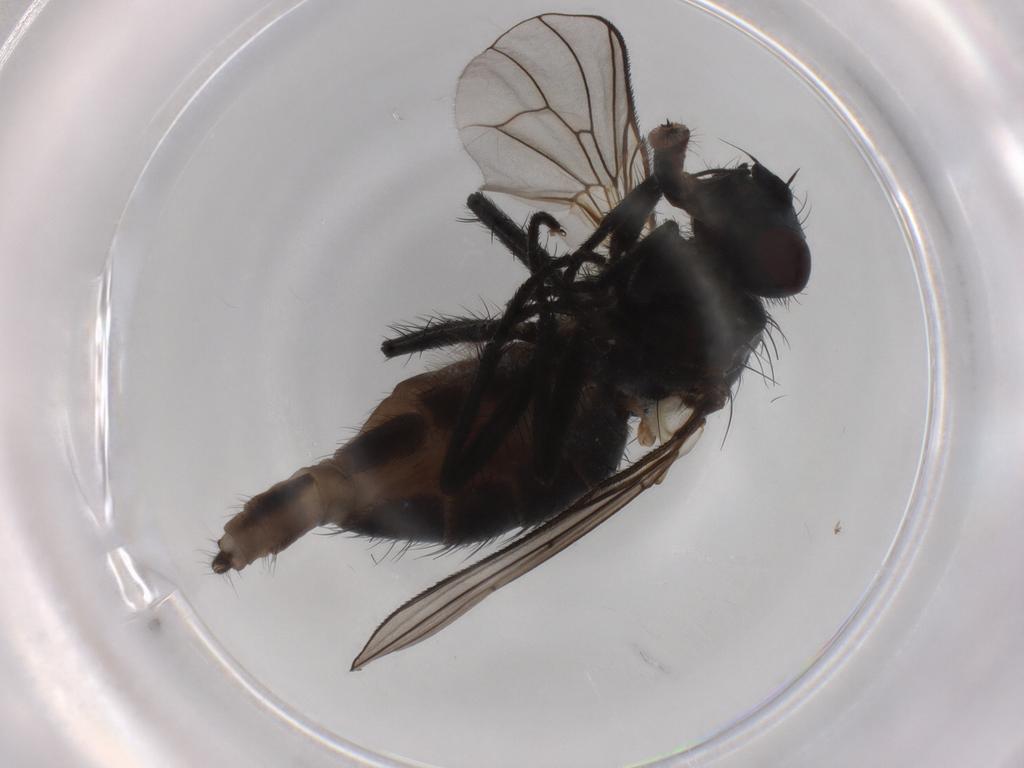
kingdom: Animalia
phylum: Arthropoda
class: Insecta
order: Diptera
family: Muscidae
